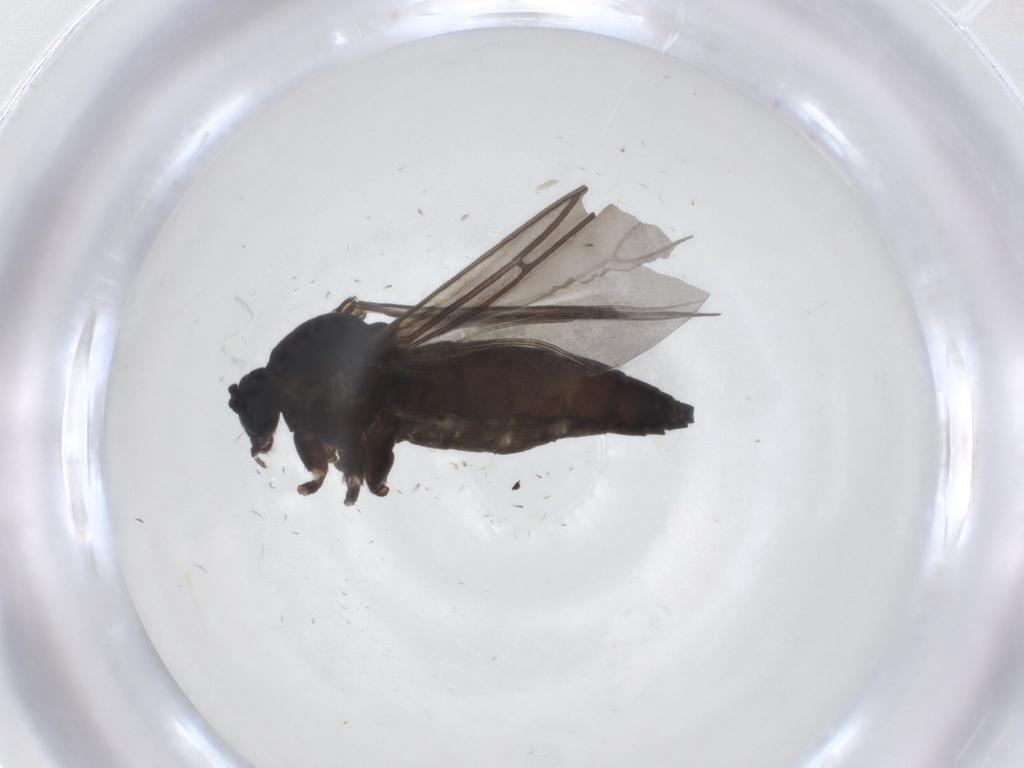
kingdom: Animalia
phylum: Arthropoda
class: Insecta
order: Diptera
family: Sciaridae
